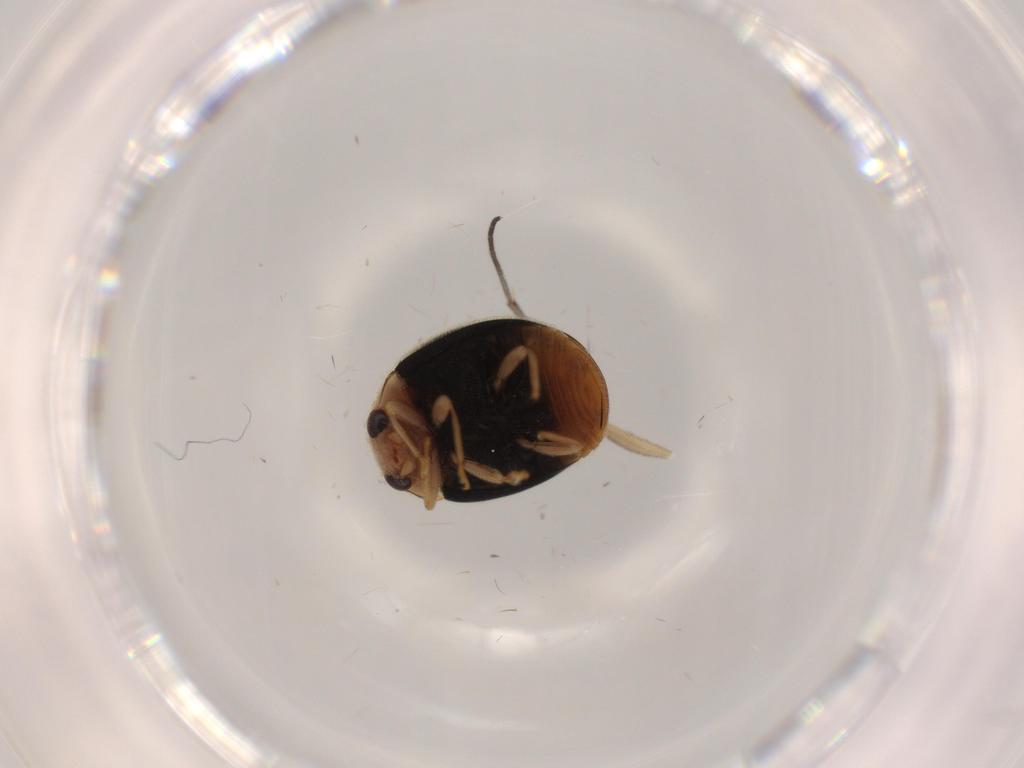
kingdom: Animalia
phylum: Arthropoda
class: Insecta
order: Coleoptera
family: Coccinellidae
